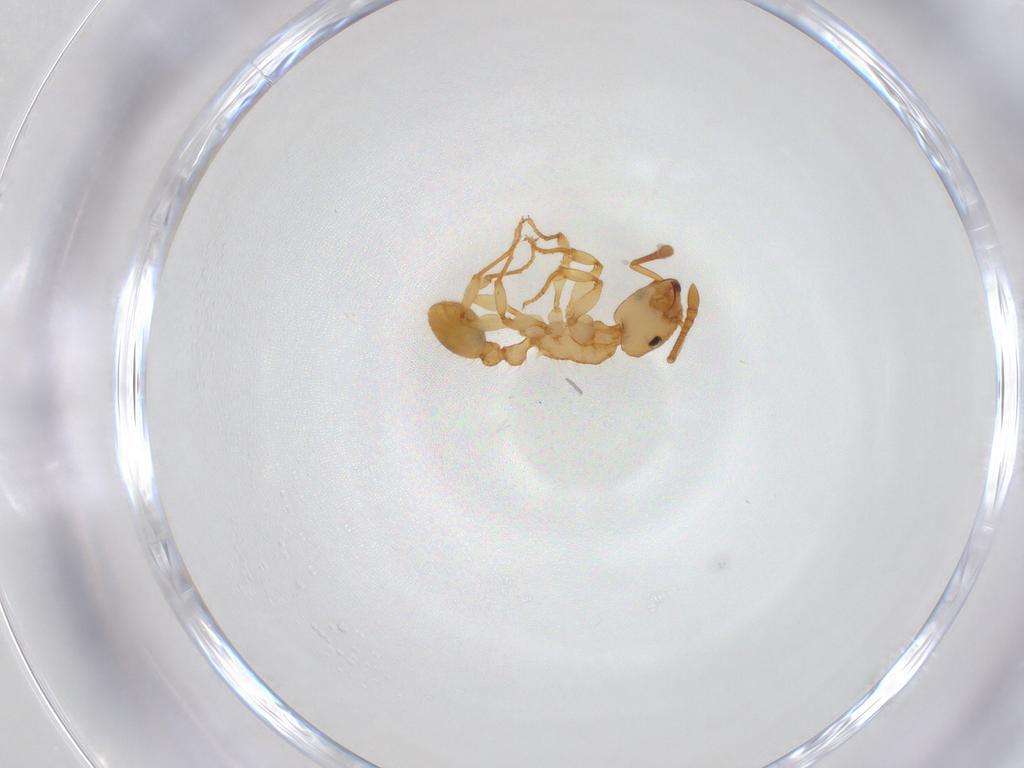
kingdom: Animalia
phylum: Arthropoda
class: Insecta
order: Hymenoptera
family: Formicidae
